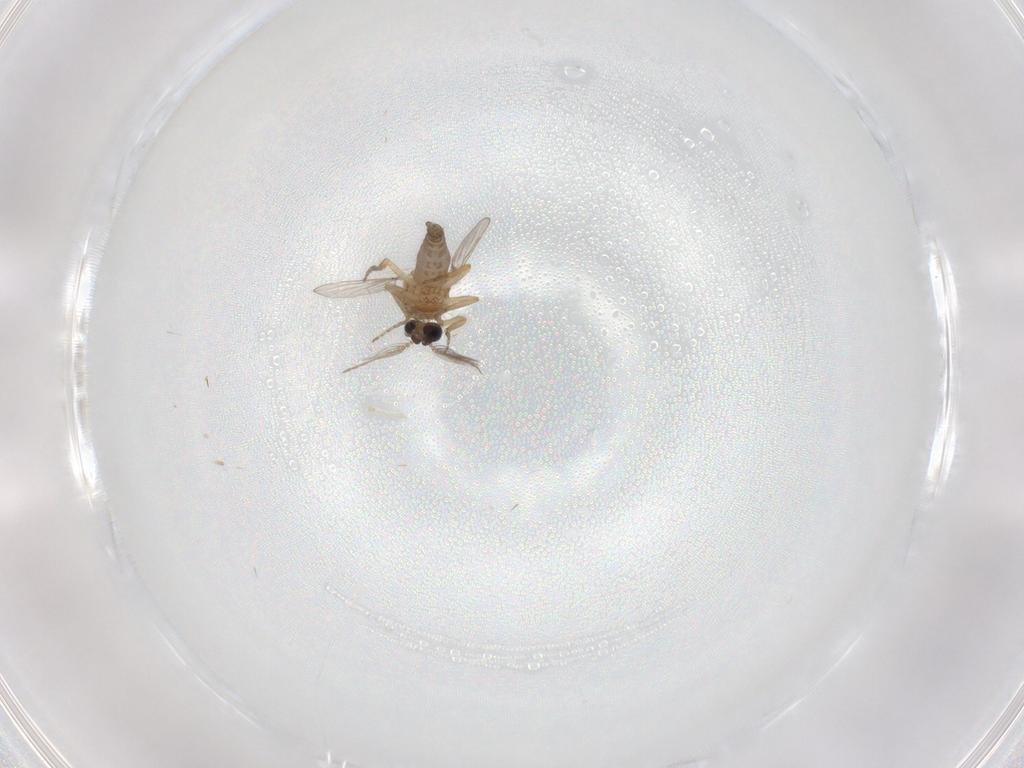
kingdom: Animalia
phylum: Arthropoda
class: Insecta
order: Diptera
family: Ceratopogonidae
